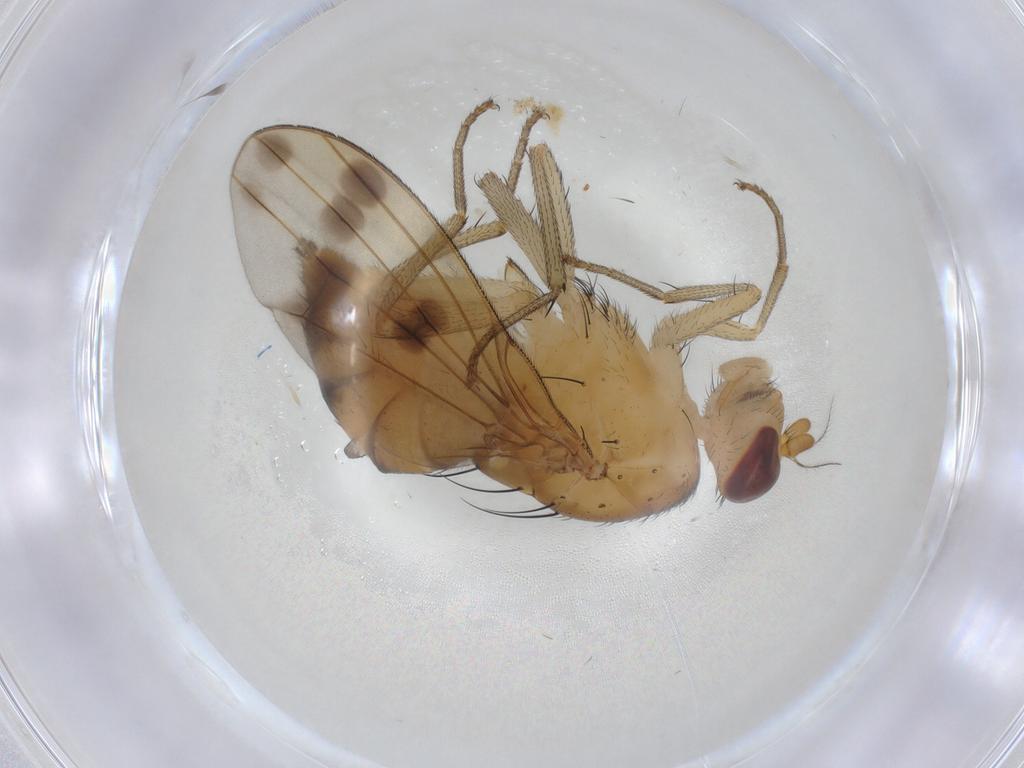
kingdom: Animalia
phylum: Arthropoda
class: Insecta
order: Diptera
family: Lauxaniidae
